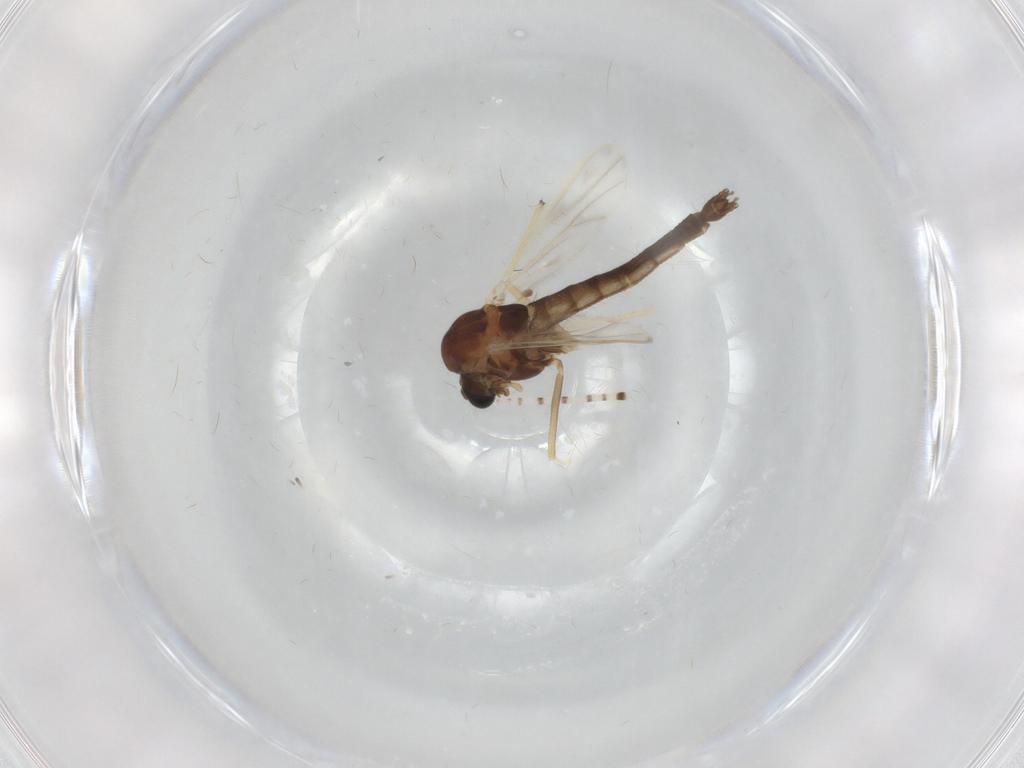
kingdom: Animalia
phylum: Arthropoda
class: Insecta
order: Diptera
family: Chironomidae
